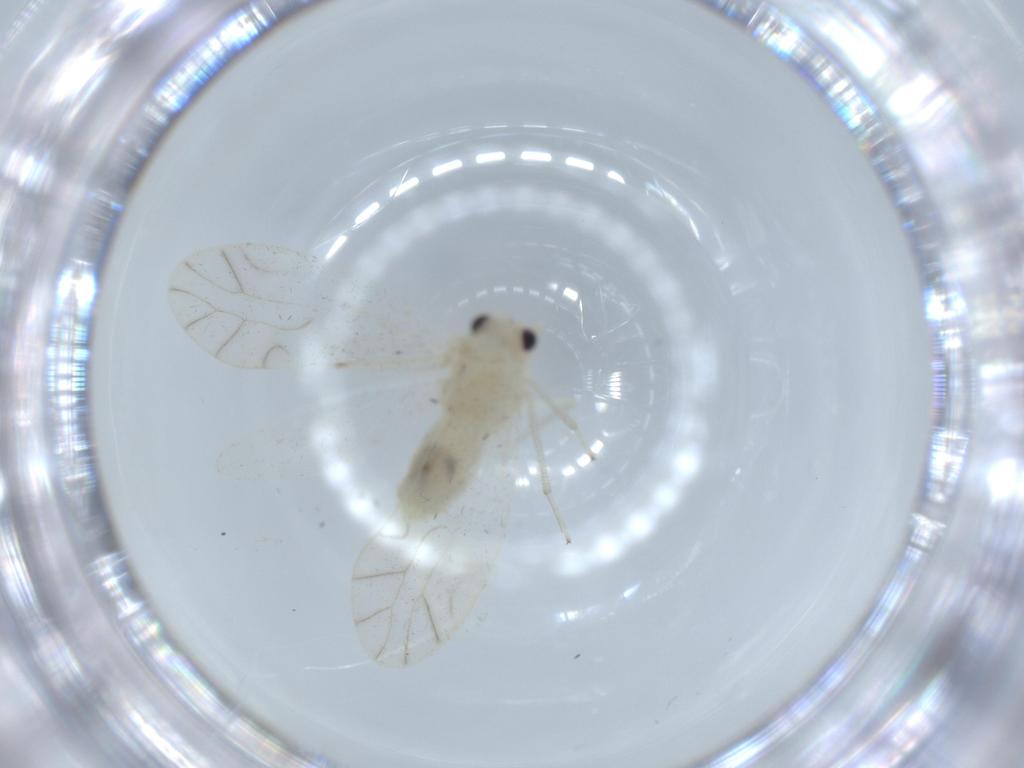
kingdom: Animalia
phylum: Arthropoda
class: Insecta
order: Psocodea
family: Caeciliusidae
